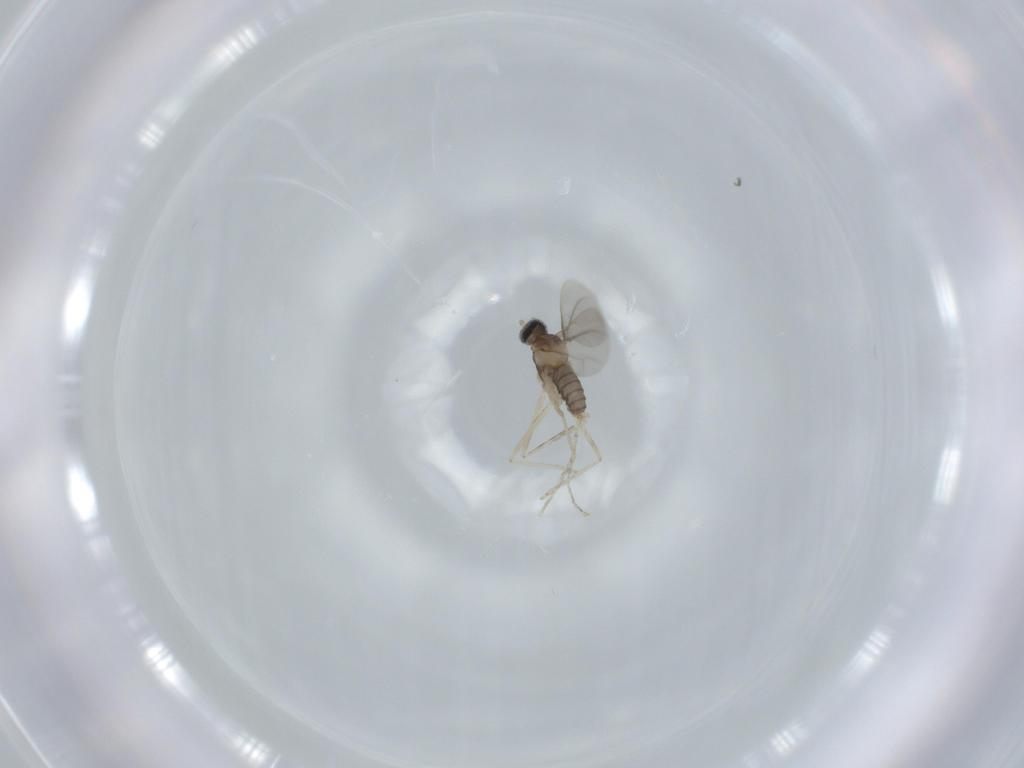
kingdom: Animalia
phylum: Arthropoda
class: Insecta
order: Diptera
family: Cecidomyiidae
